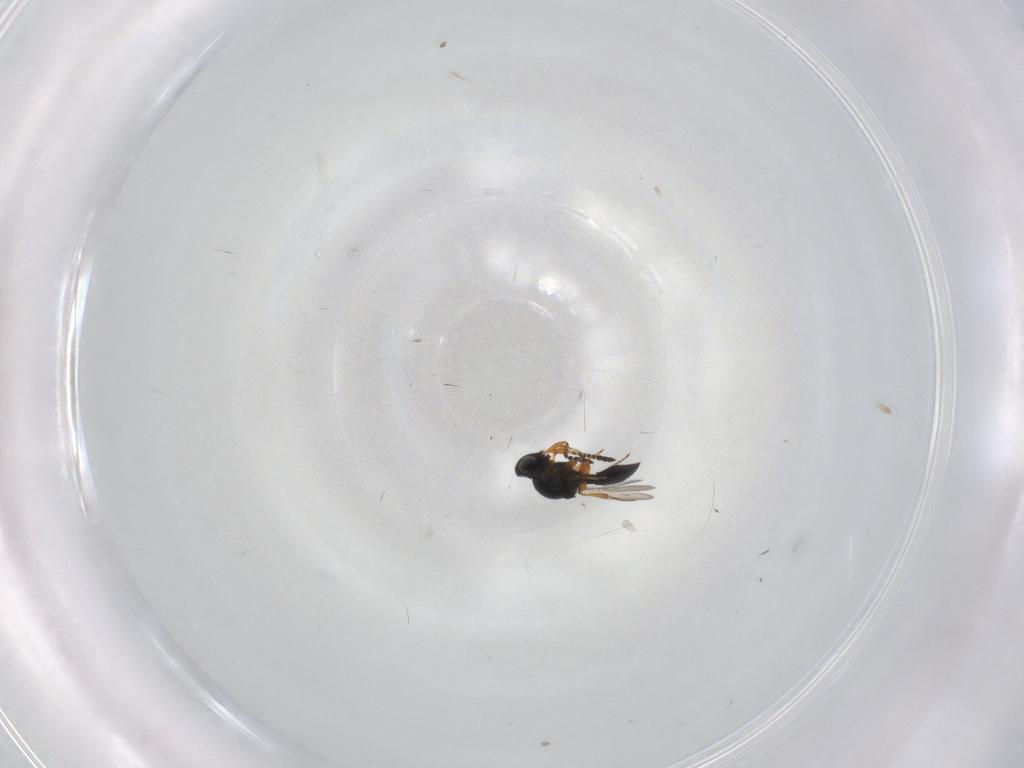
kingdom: Animalia
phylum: Arthropoda
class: Insecta
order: Hymenoptera
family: Platygastridae
